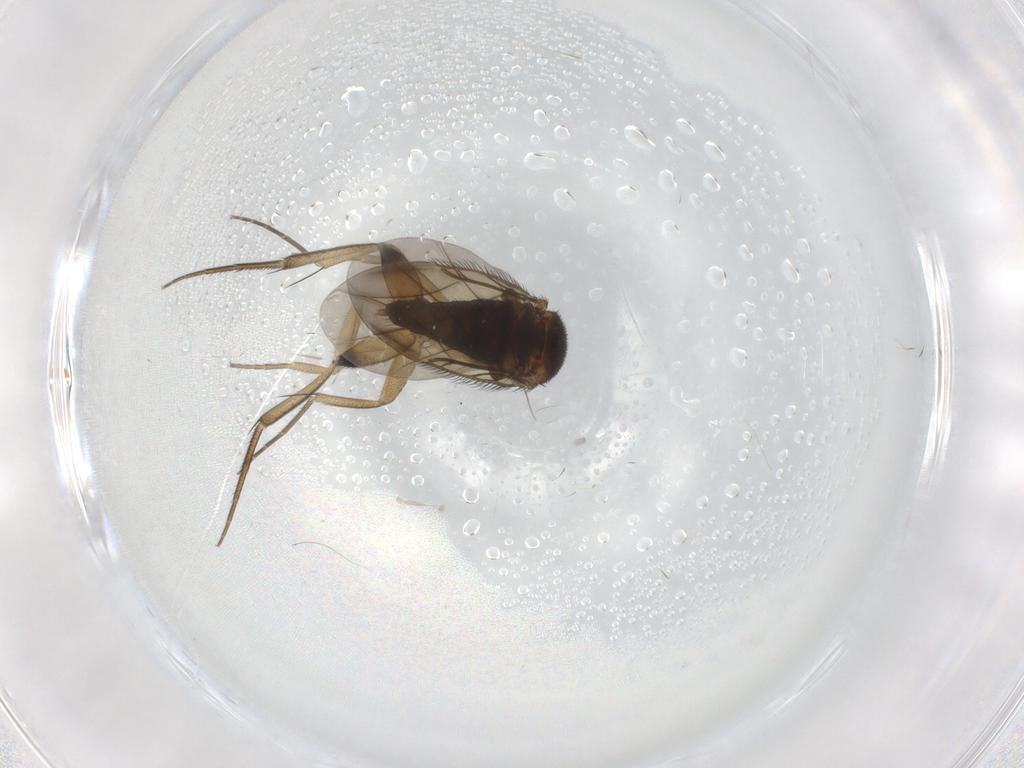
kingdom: Animalia
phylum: Arthropoda
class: Insecta
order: Diptera
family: Phoridae
